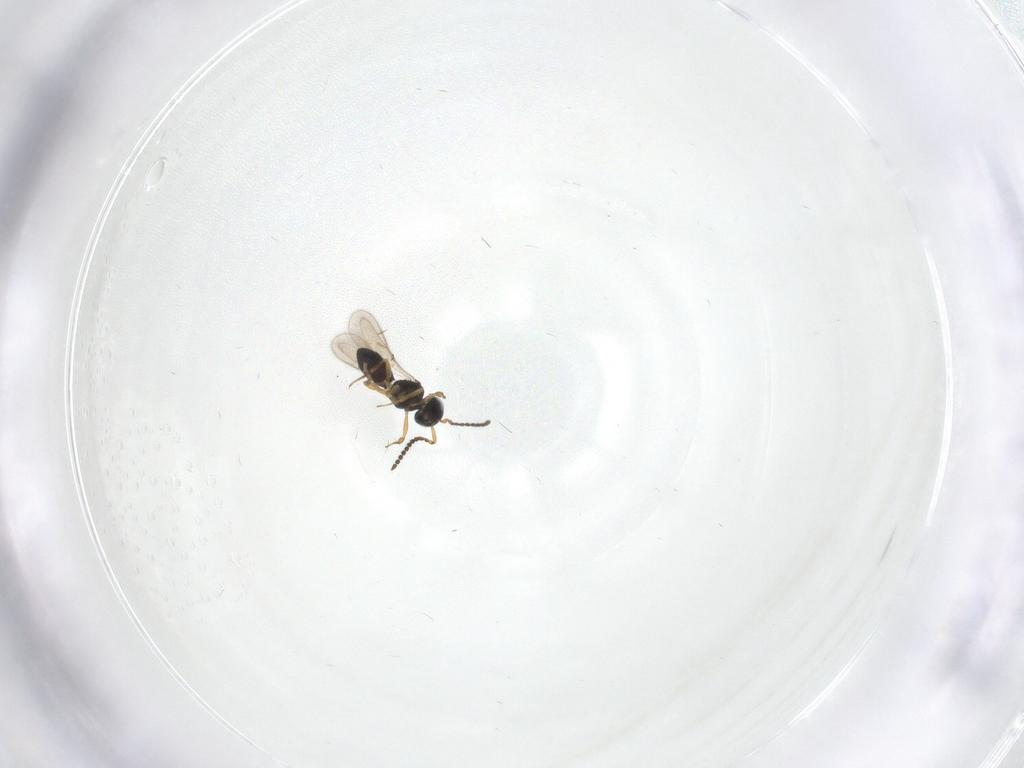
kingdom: Animalia
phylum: Arthropoda
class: Insecta
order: Hymenoptera
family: Scelionidae
